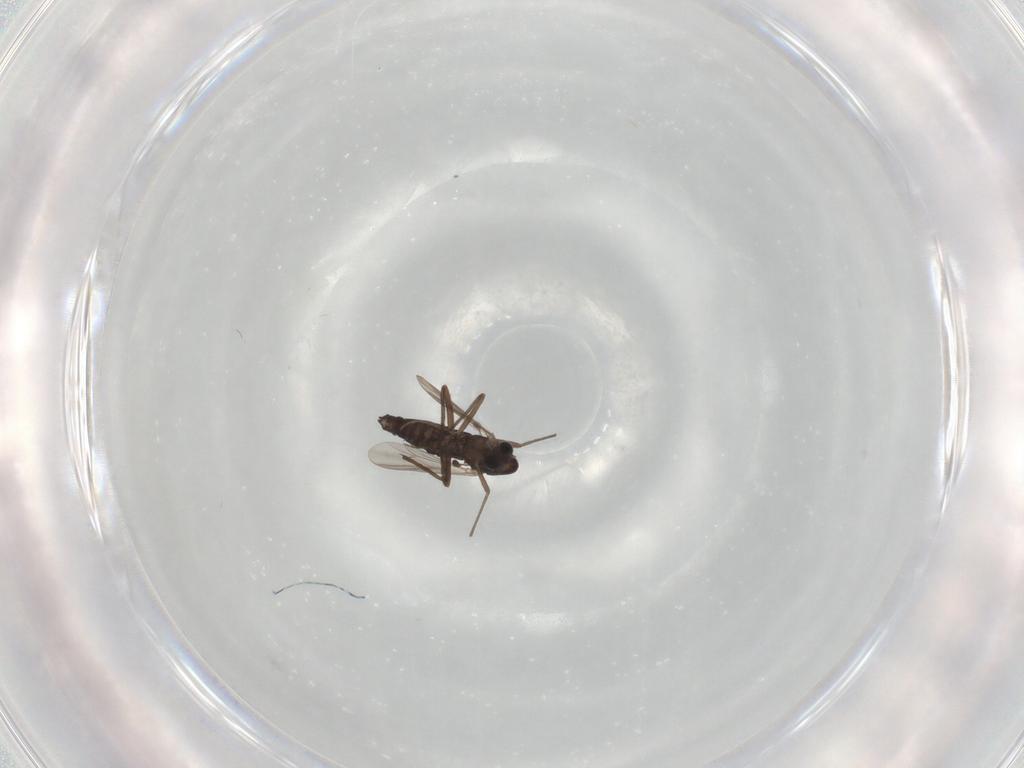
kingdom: Animalia
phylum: Arthropoda
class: Insecta
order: Diptera
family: Chironomidae
